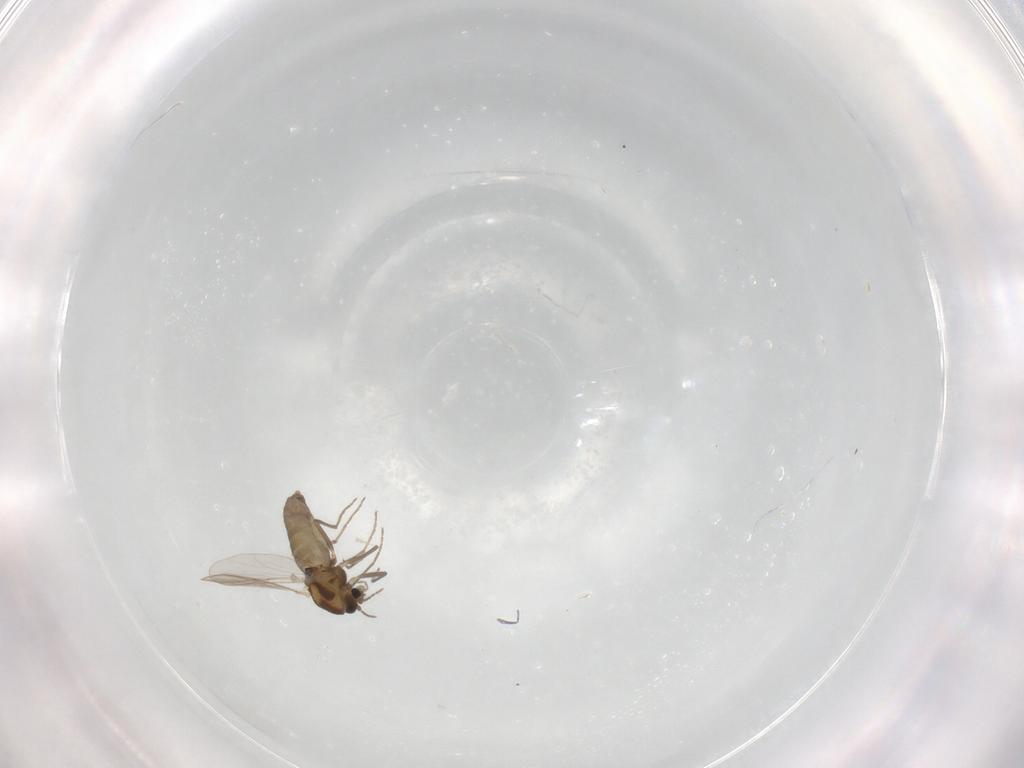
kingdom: Animalia
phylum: Arthropoda
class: Insecta
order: Diptera
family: Chironomidae
